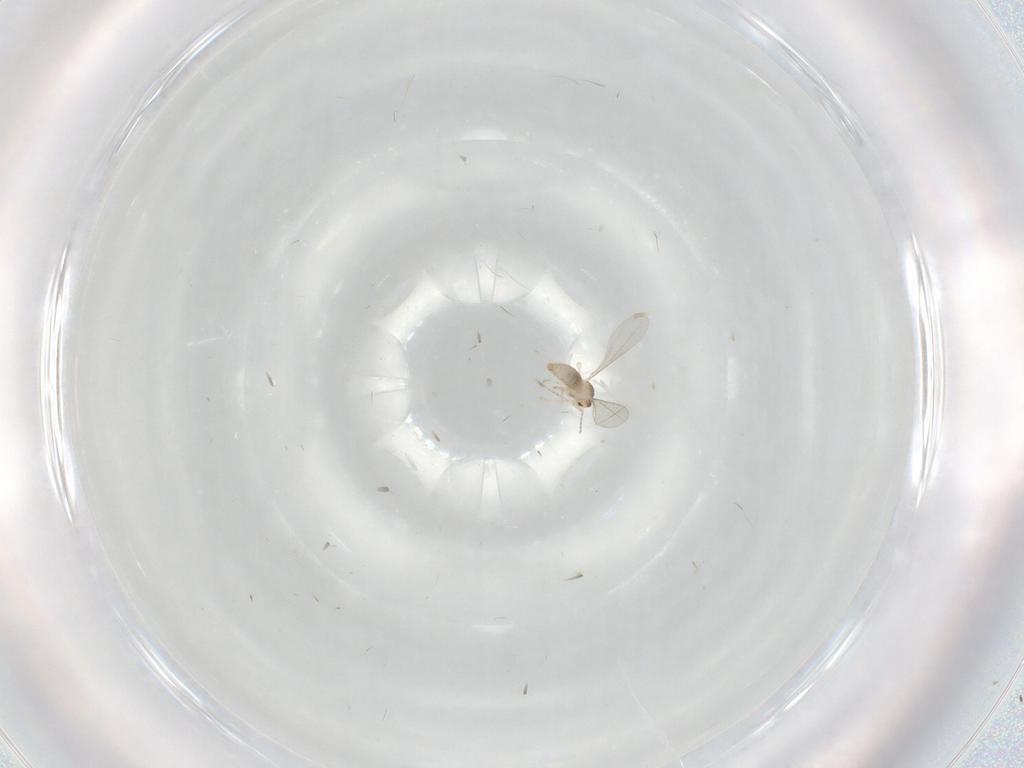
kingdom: Animalia
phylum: Arthropoda
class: Insecta
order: Diptera
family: Cecidomyiidae
